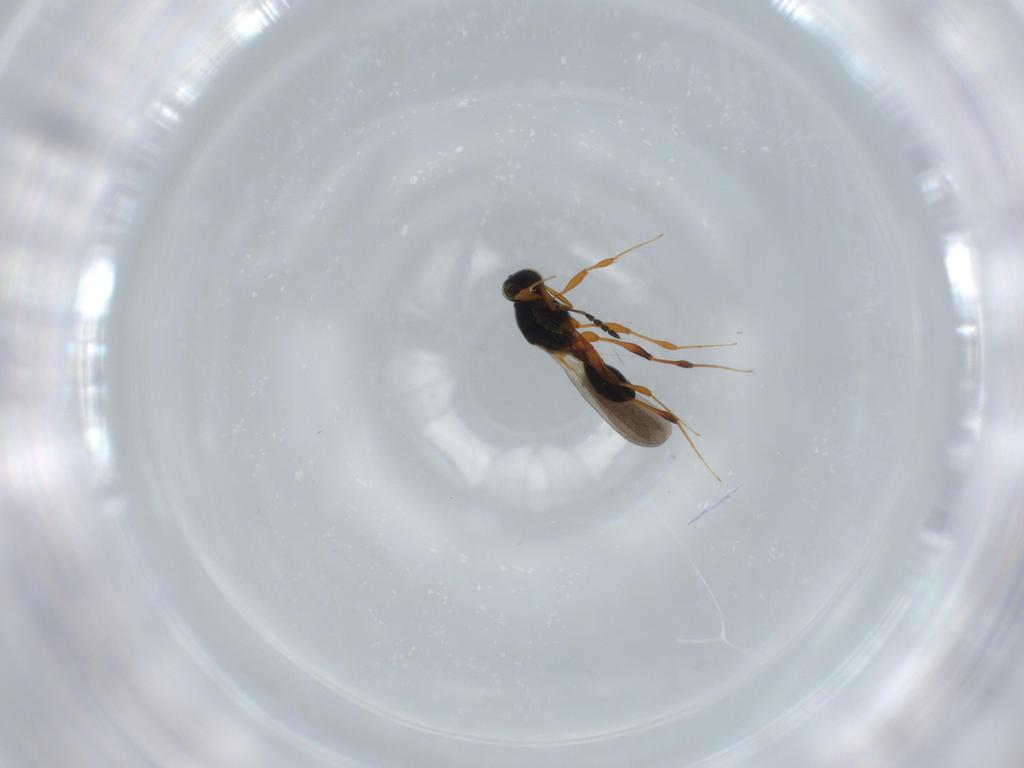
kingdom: Animalia
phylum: Arthropoda
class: Insecta
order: Hymenoptera
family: Platygastridae
